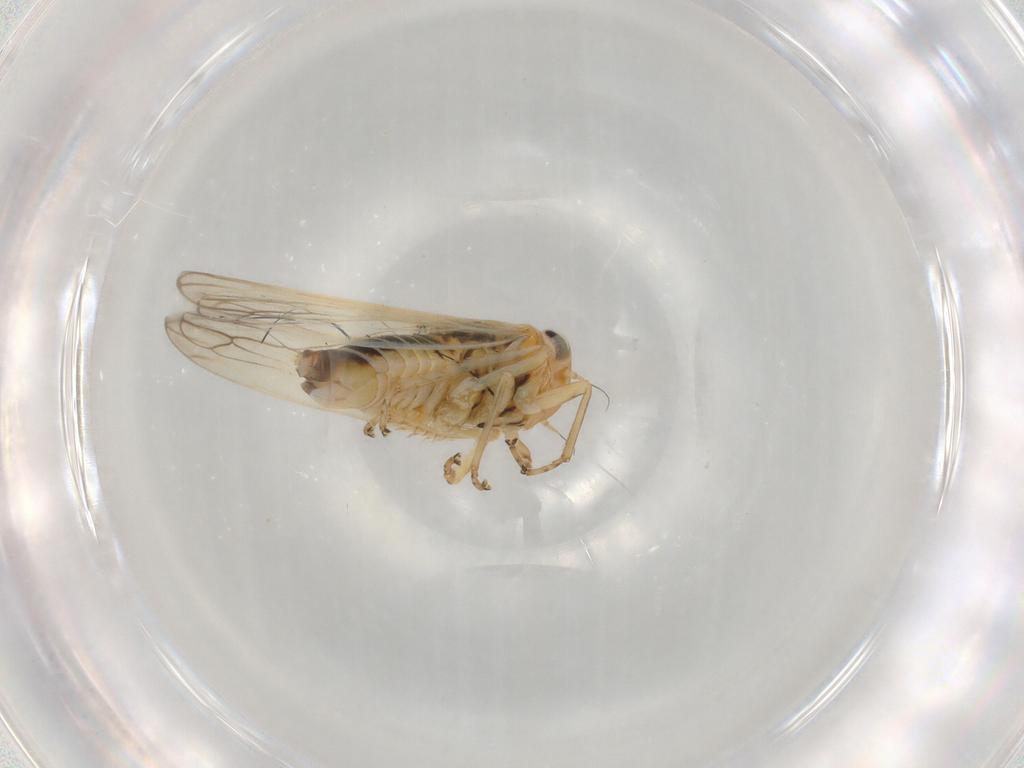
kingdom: Animalia
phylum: Arthropoda
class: Insecta
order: Hemiptera
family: Cicadellidae
